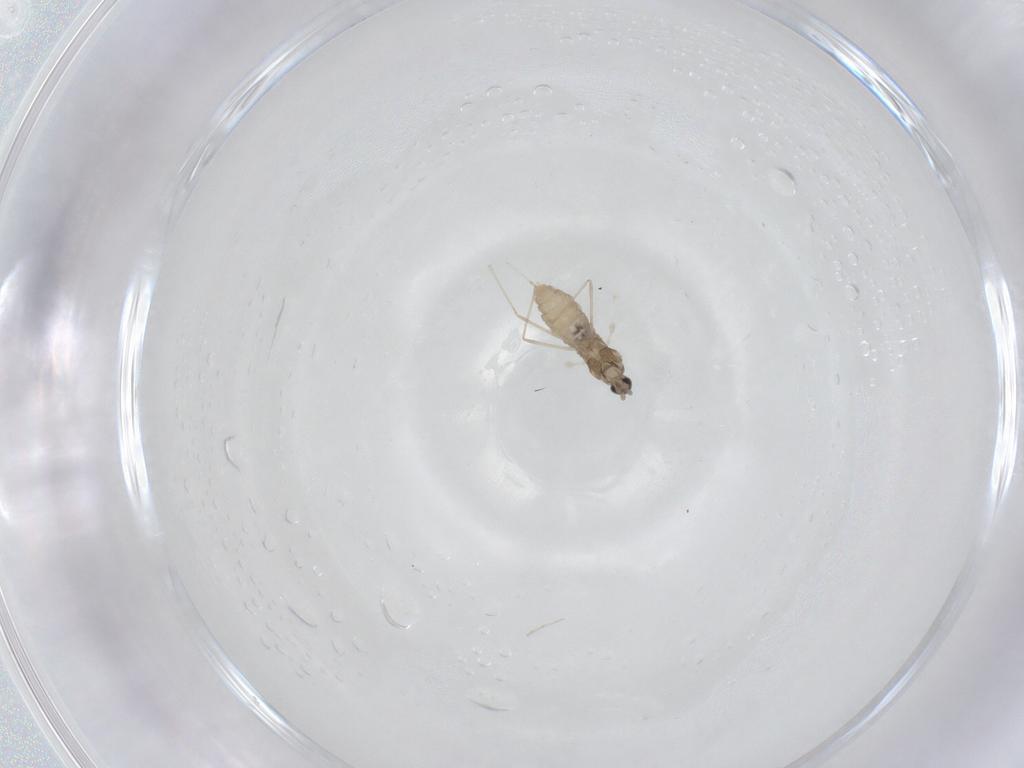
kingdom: Animalia
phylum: Arthropoda
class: Insecta
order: Diptera
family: Cecidomyiidae
